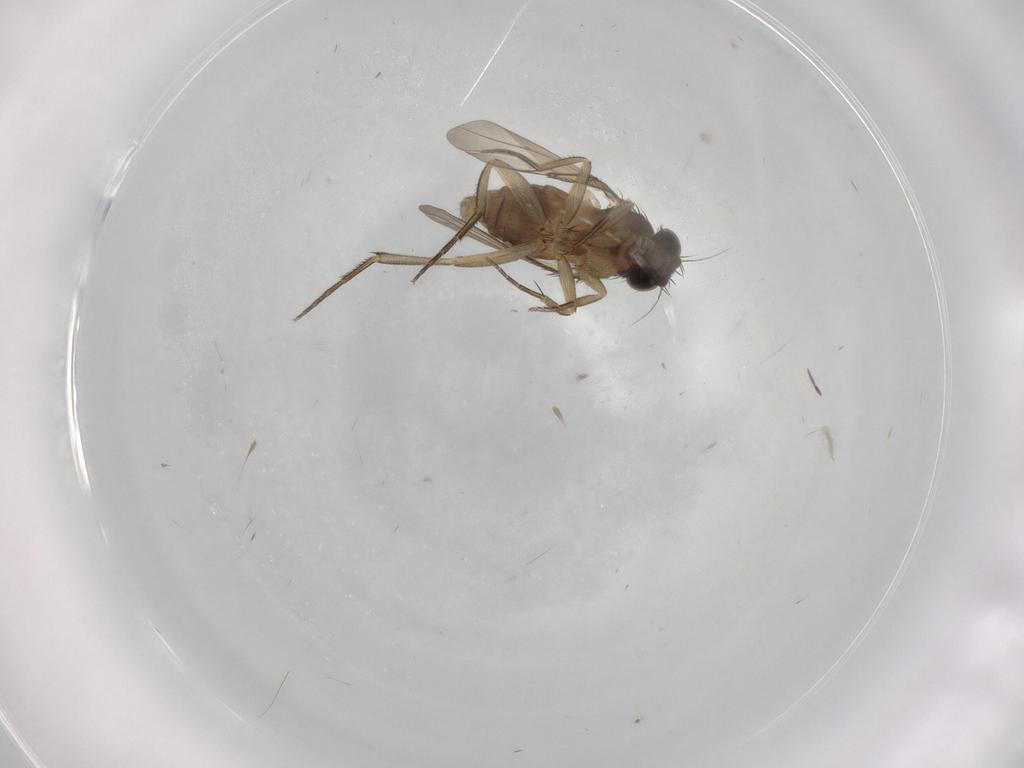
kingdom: Animalia
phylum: Arthropoda
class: Insecta
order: Diptera
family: Phoridae
